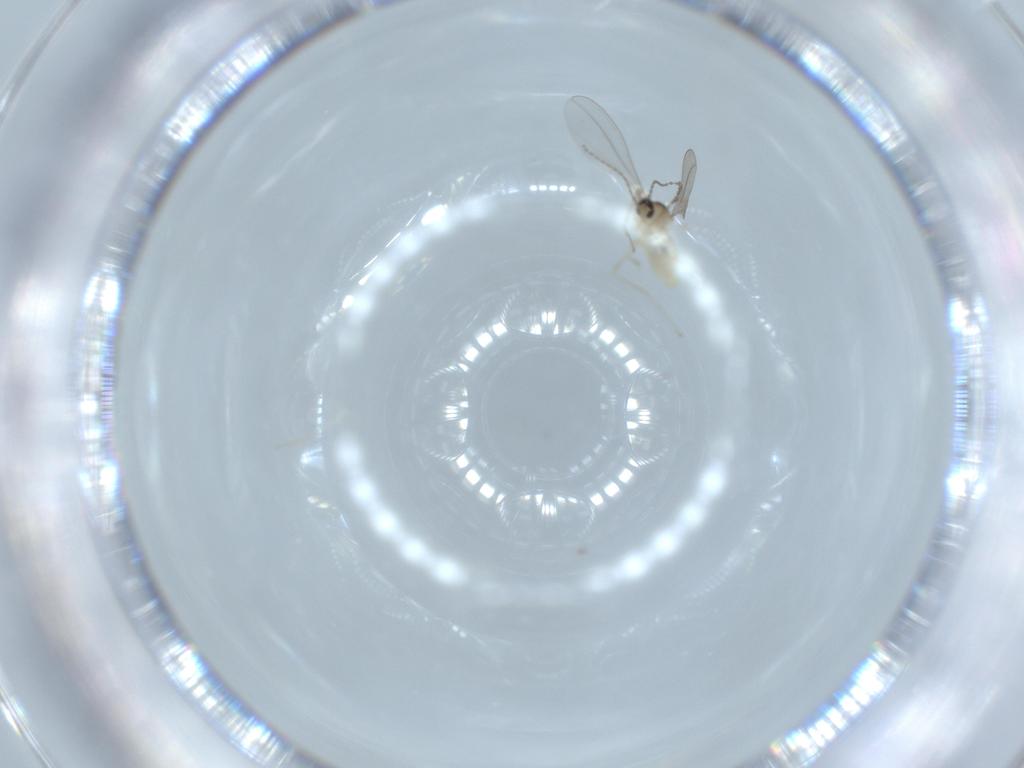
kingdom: Animalia
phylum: Arthropoda
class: Insecta
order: Diptera
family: Cecidomyiidae
